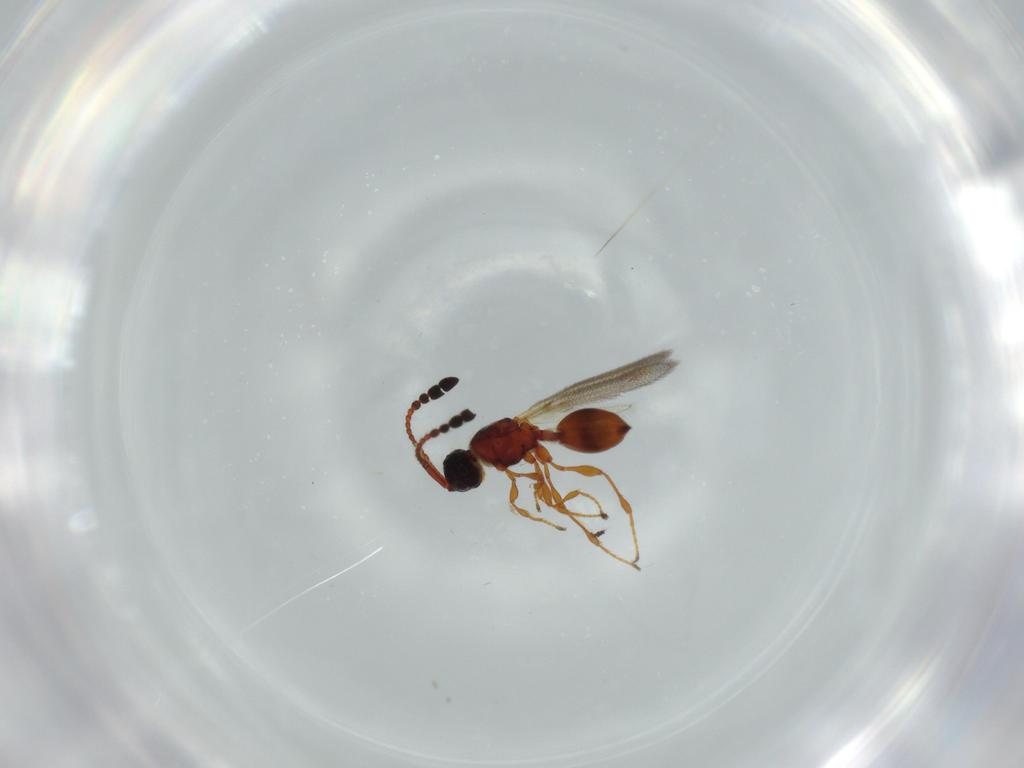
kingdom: Animalia
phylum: Arthropoda
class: Insecta
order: Hymenoptera
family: Diapriidae
